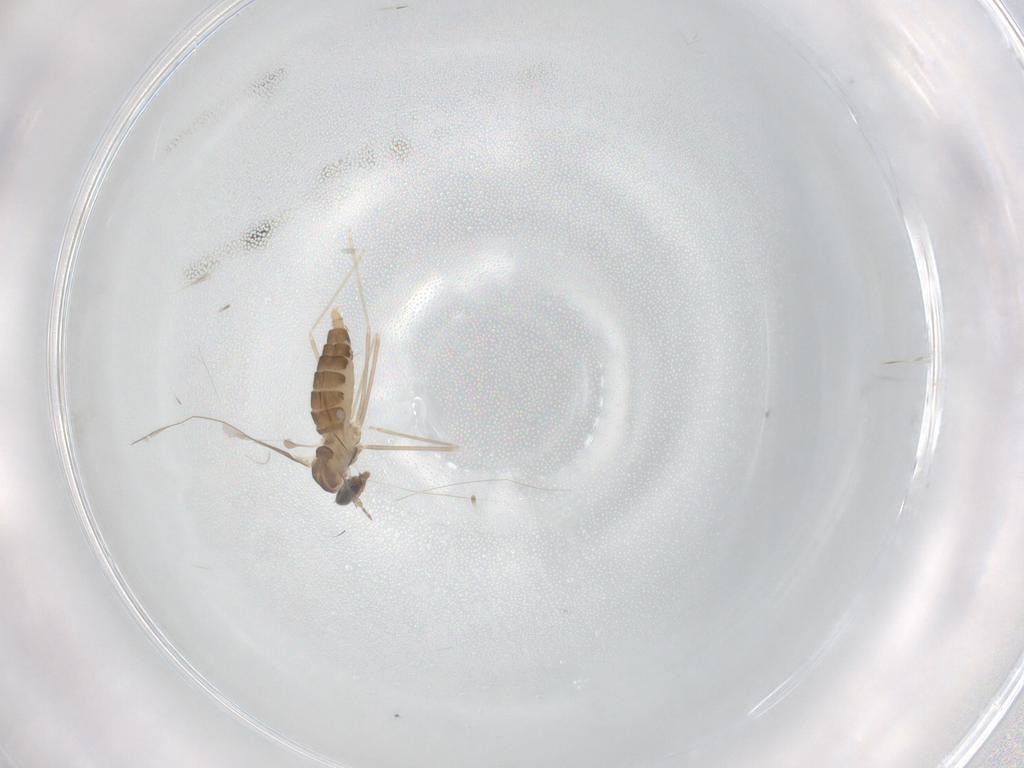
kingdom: Animalia
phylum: Arthropoda
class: Insecta
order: Diptera
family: Cecidomyiidae
